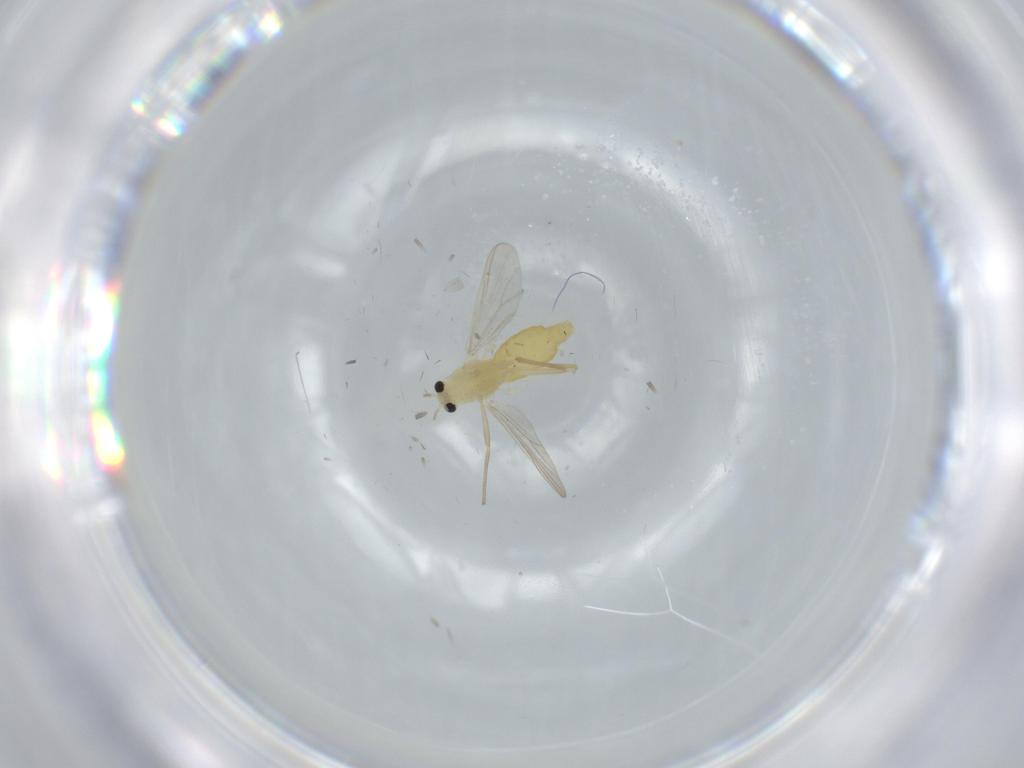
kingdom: Animalia
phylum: Arthropoda
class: Insecta
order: Diptera
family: Chironomidae
